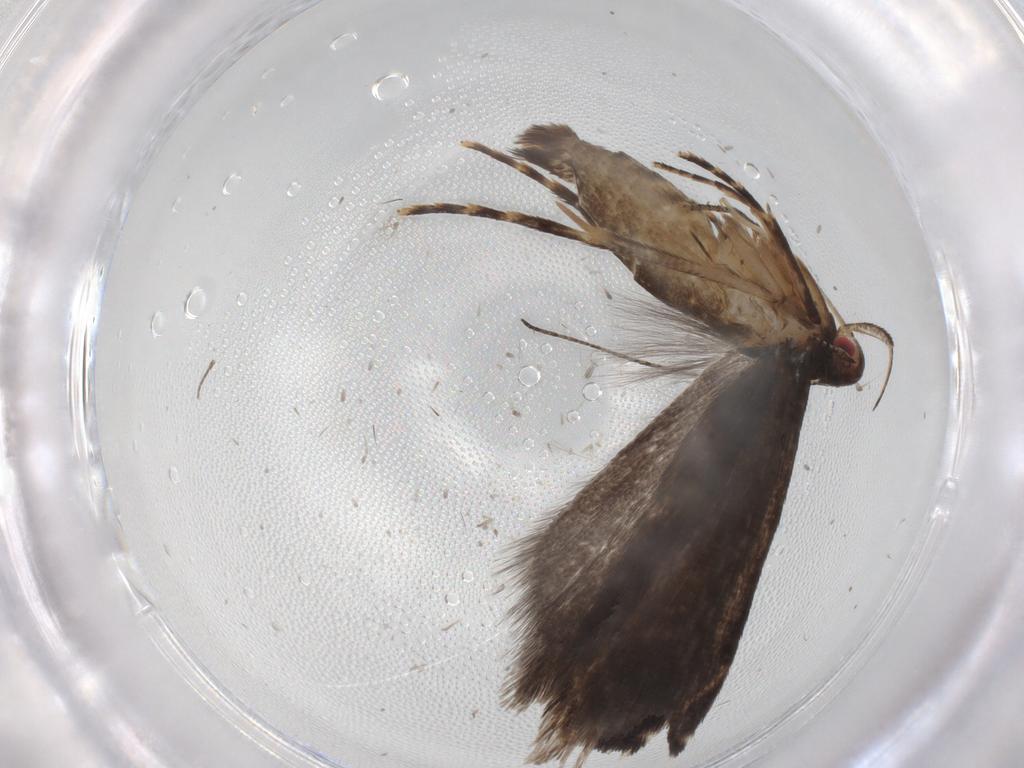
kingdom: Animalia
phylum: Arthropoda
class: Insecta
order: Lepidoptera
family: Gelechiidae
